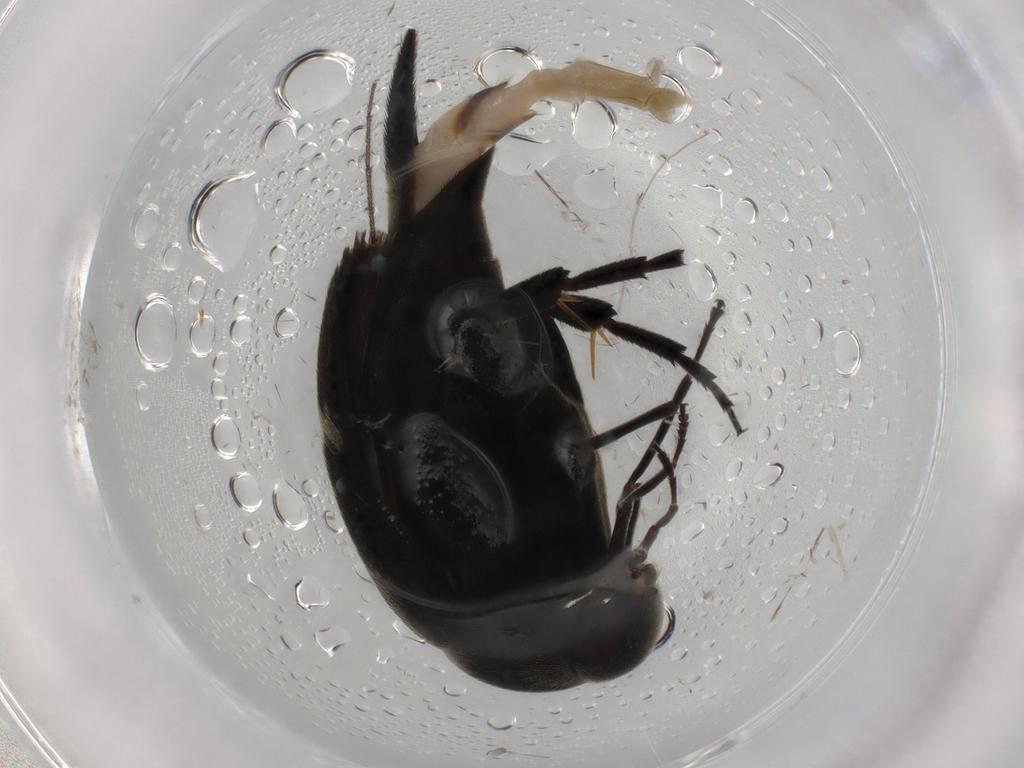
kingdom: Animalia
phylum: Arthropoda
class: Insecta
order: Coleoptera
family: Mordellidae
